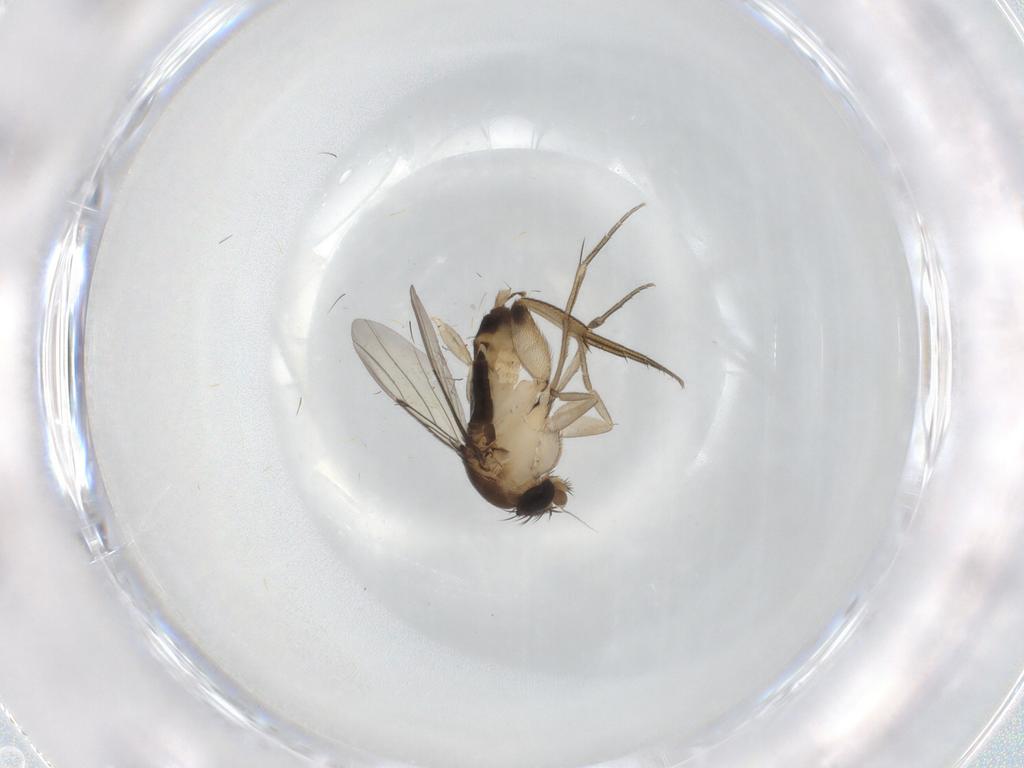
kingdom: Animalia
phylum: Arthropoda
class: Insecta
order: Diptera
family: Phoridae
